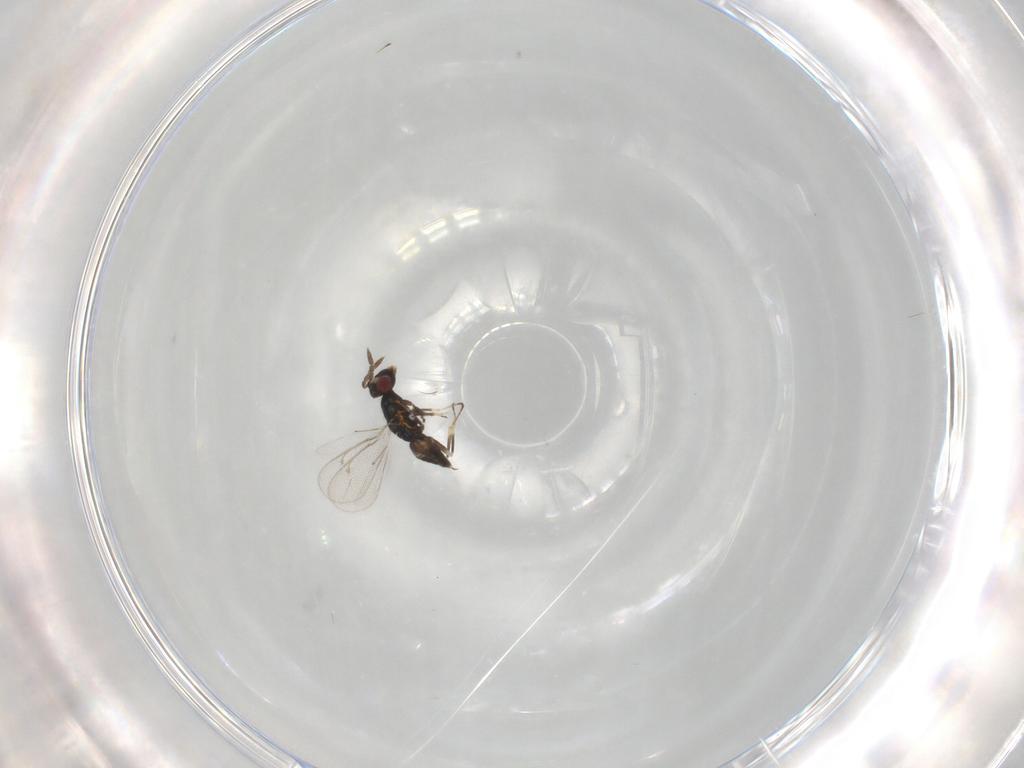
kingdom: Animalia
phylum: Arthropoda
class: Insecta
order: Hymenoptera
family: Eulophidae
